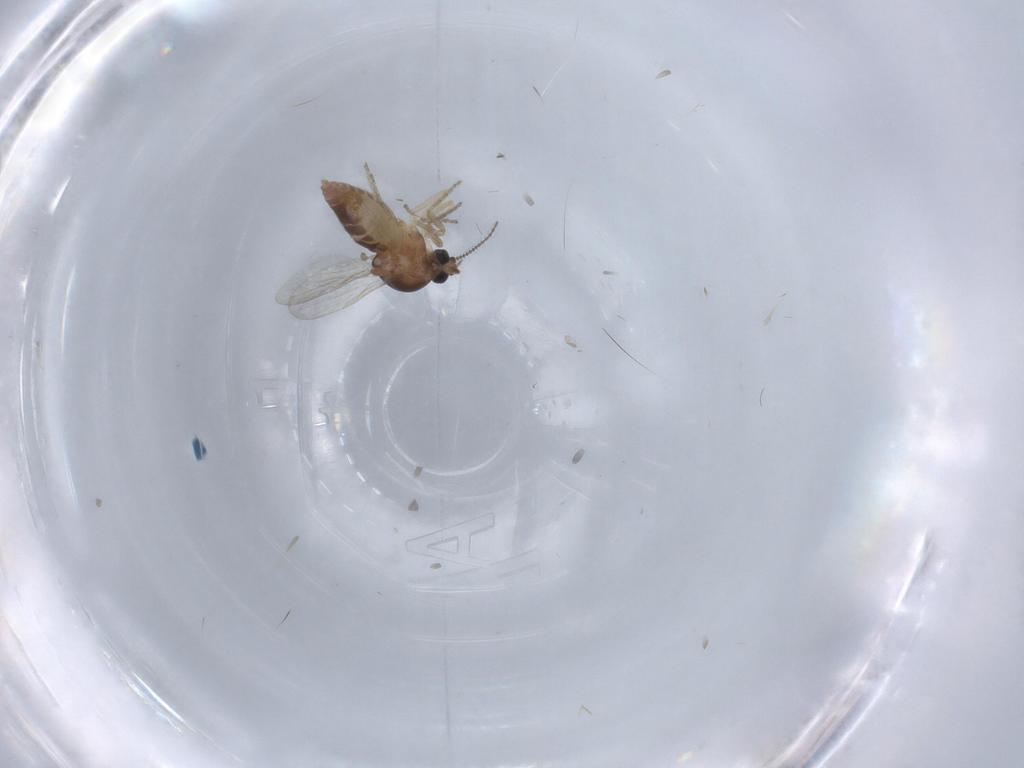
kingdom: Animalia
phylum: Arthropoda
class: Insecta
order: Diptera
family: Ceratopogonidae
